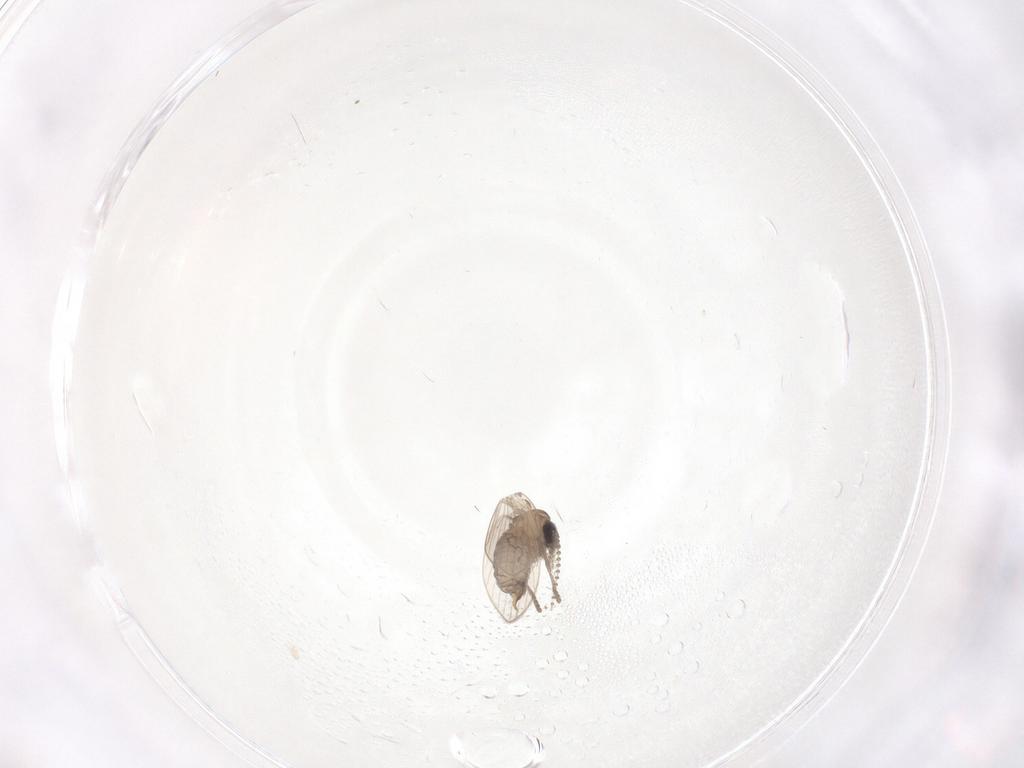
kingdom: Animalia
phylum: Arthropoda
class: Insecta
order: Diptera
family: Psychodidae
